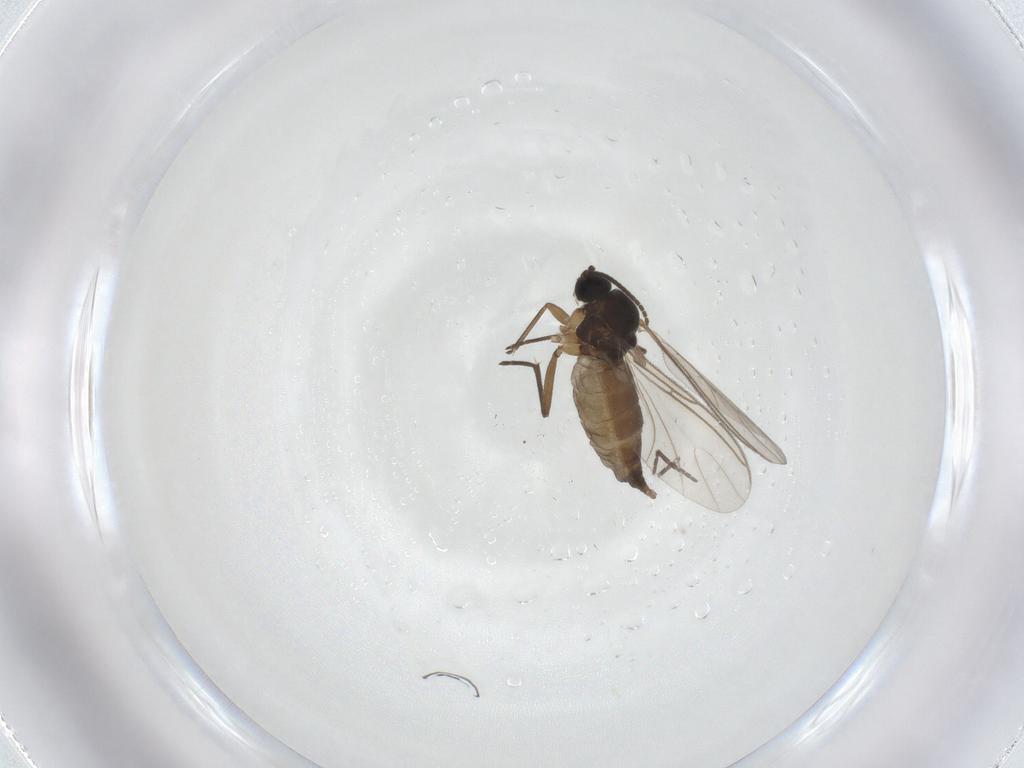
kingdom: Animalia
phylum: Arthropoda
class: Insecta
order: Diptera
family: Sciaridae
